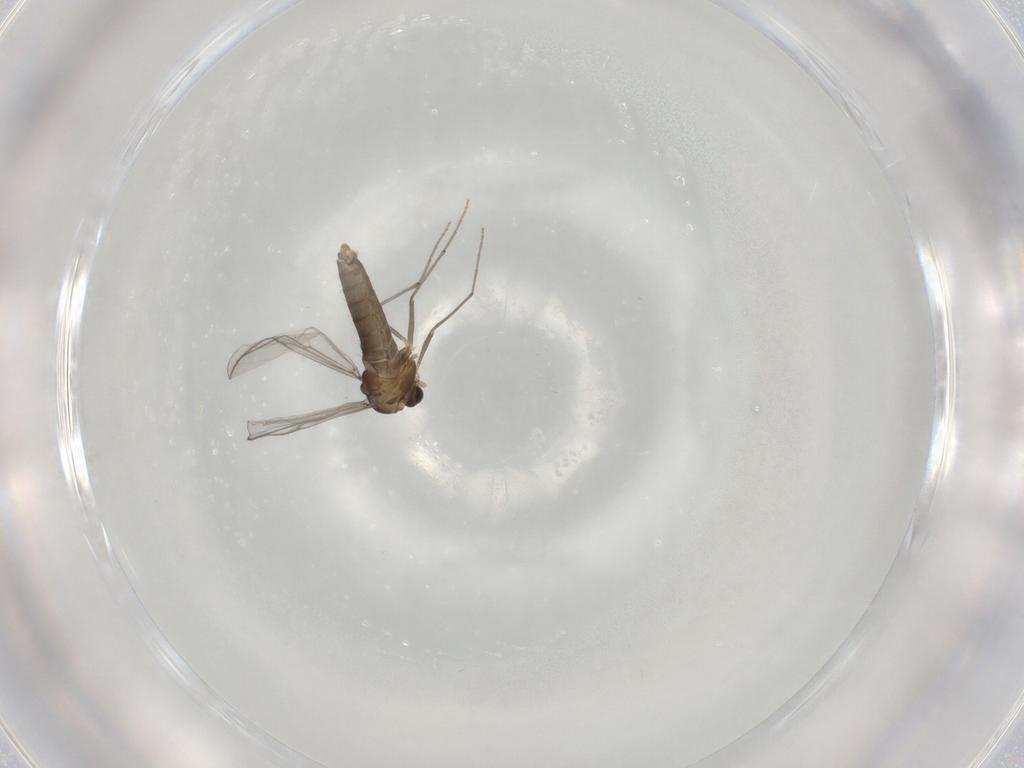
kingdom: Animalia
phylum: Arthropoda
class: Insecta
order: Diptera
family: Chironomidae
